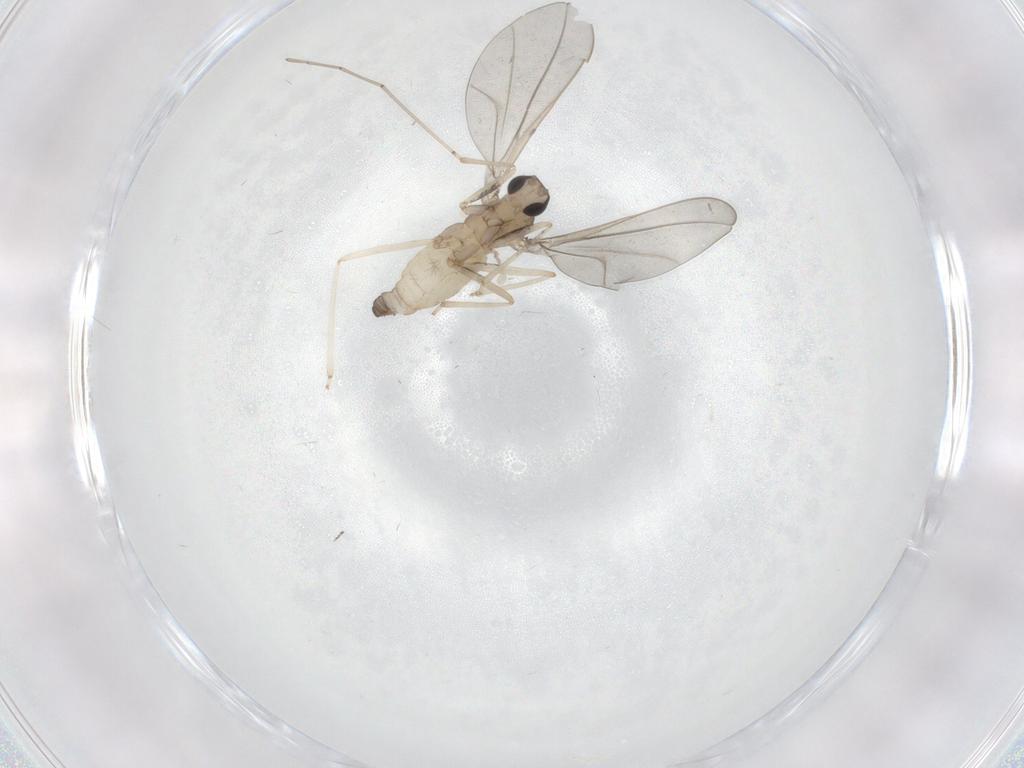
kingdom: Animalia
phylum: Arthropoda
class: Insecta
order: Diptera
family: Cecidomyiidae
